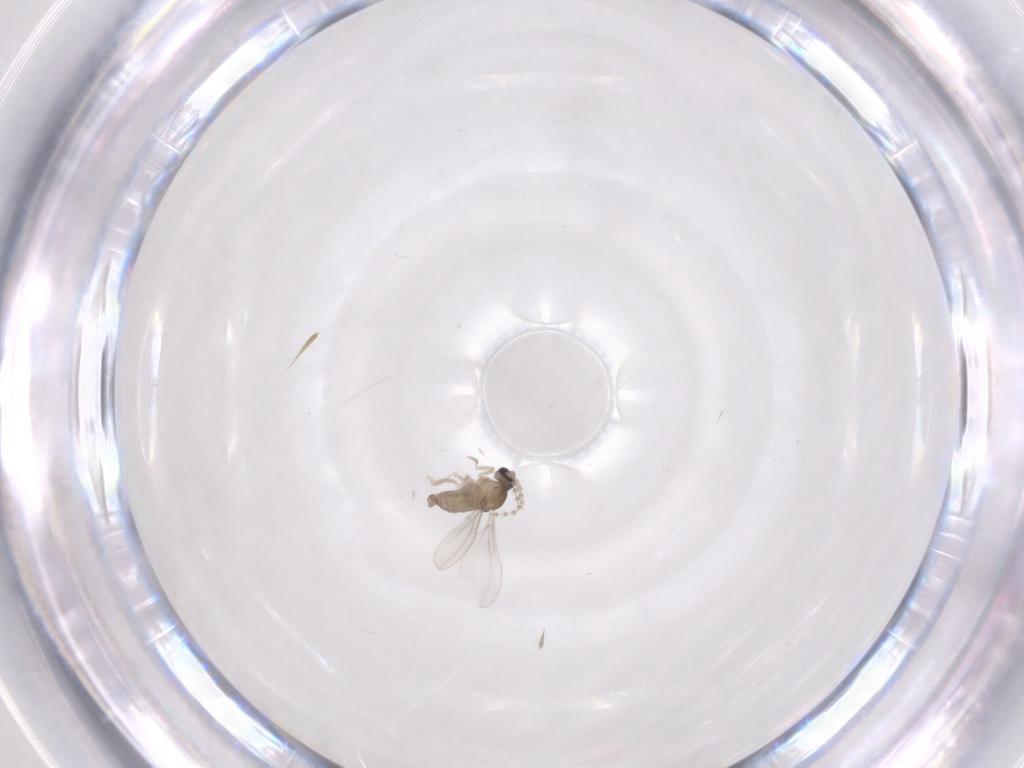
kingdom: Animalia
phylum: Arthropoda
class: Insecta
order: Diptera
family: Cecidomyiidae
